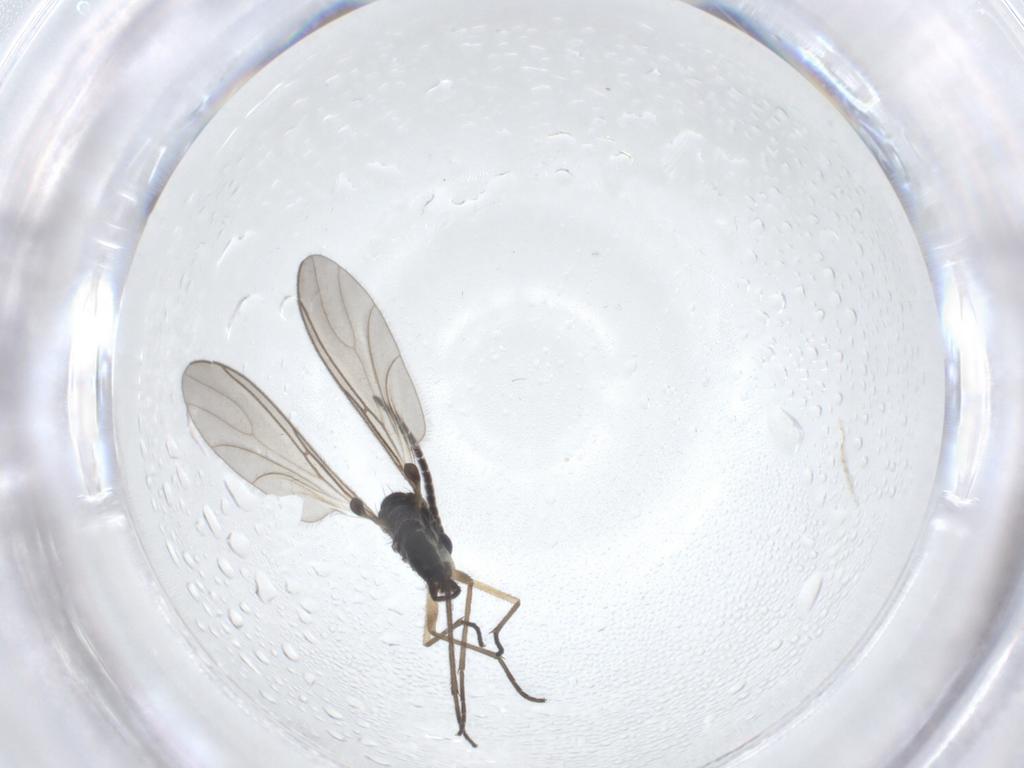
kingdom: Animalia
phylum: Arthropoda
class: Insecta
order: Diptera
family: Sciaridae
